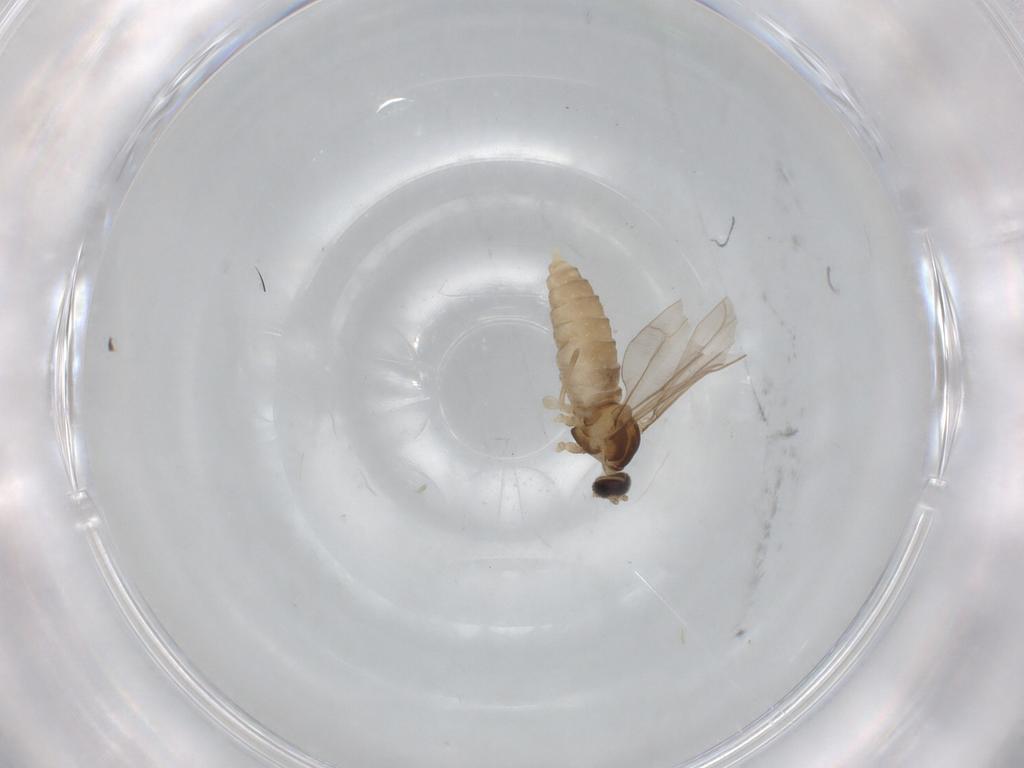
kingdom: Animalia
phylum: Arthropoda
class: Insecta
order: Diptera
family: Cecidomyiidae
